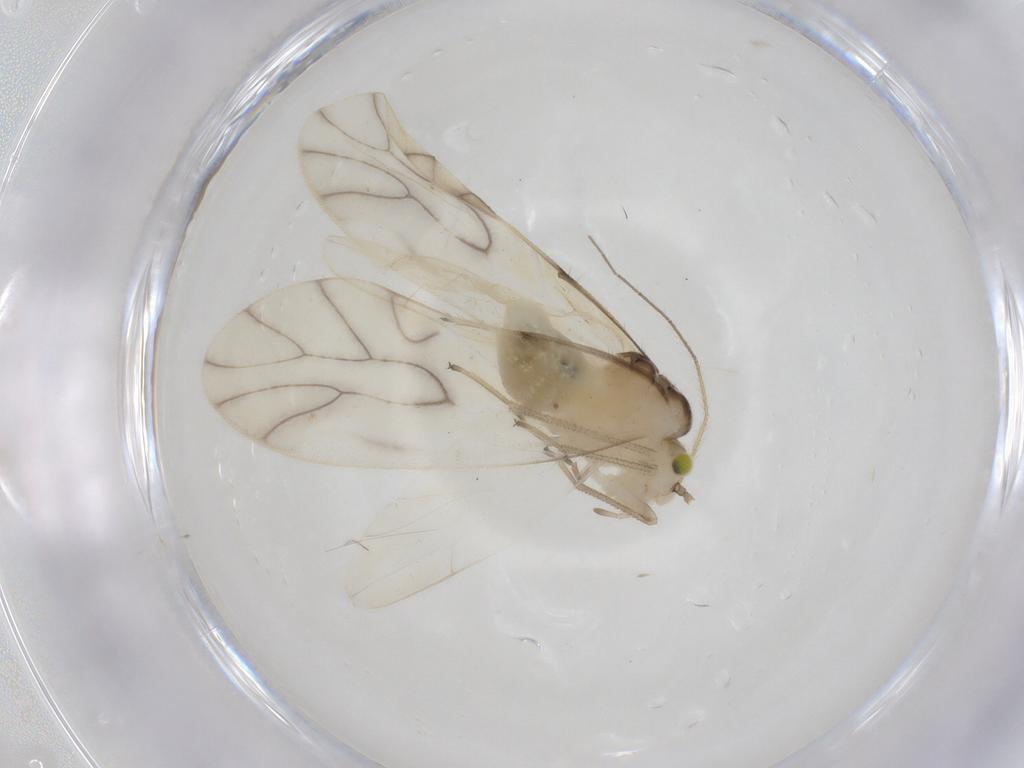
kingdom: Animalia
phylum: Arthropoda
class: Insecta
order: Psocodea
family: Caeciliusidae
